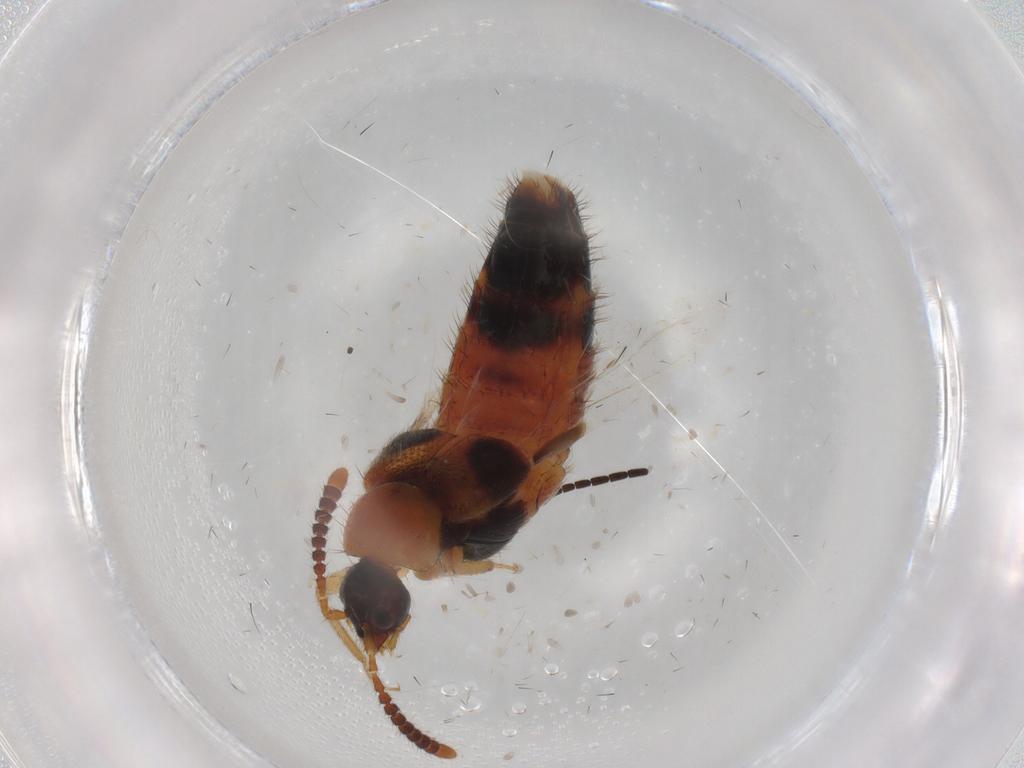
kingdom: Animalia
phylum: Arthropoda
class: Insecta
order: Coleoptera
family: Staphylinidae
